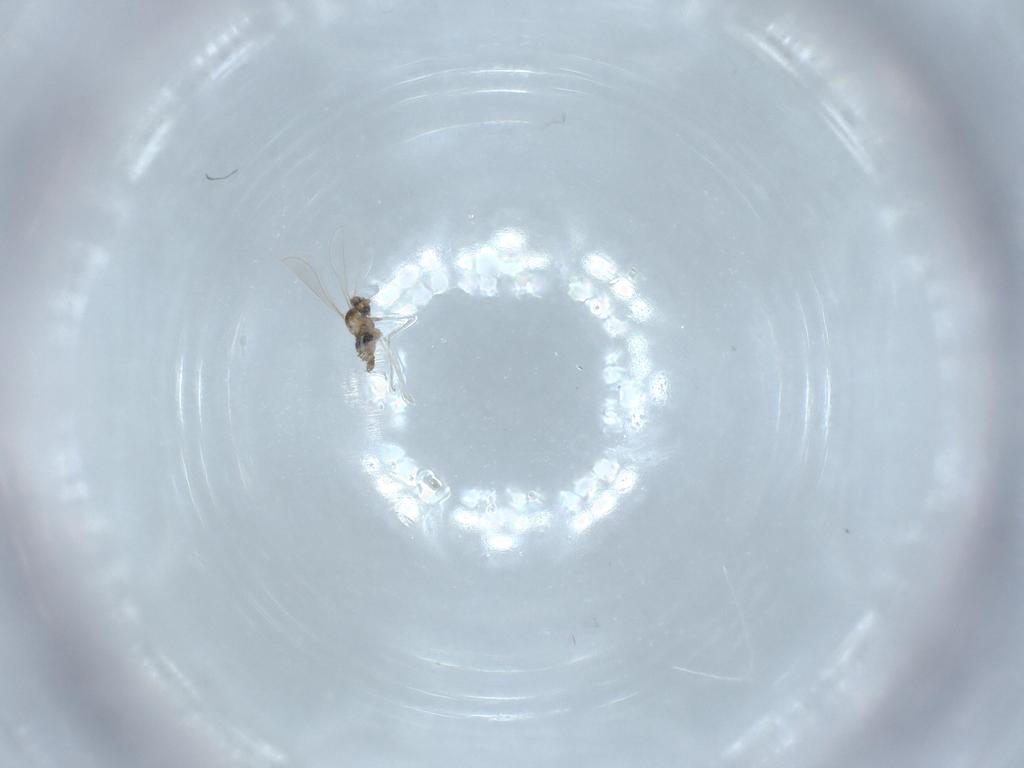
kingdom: Animalia
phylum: Arthropoda
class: Insecta
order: Diptera
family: Cecidomyiidae
